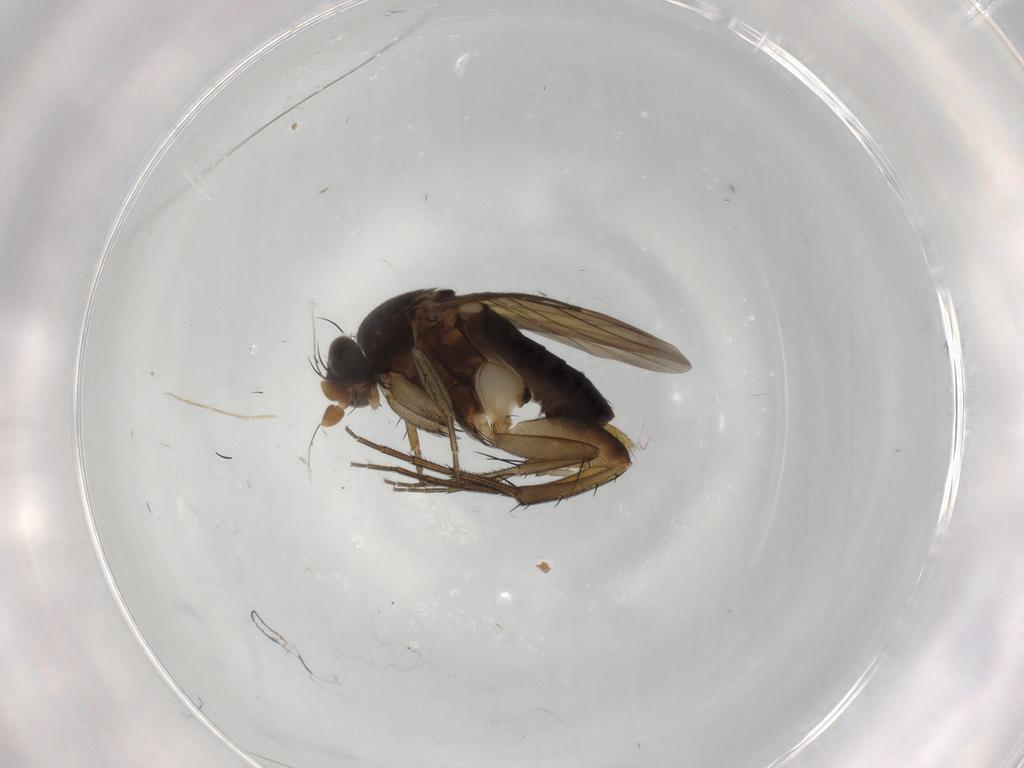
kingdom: Animalia
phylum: Arthropoda
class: Insecta
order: Diptera
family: Phoridae
